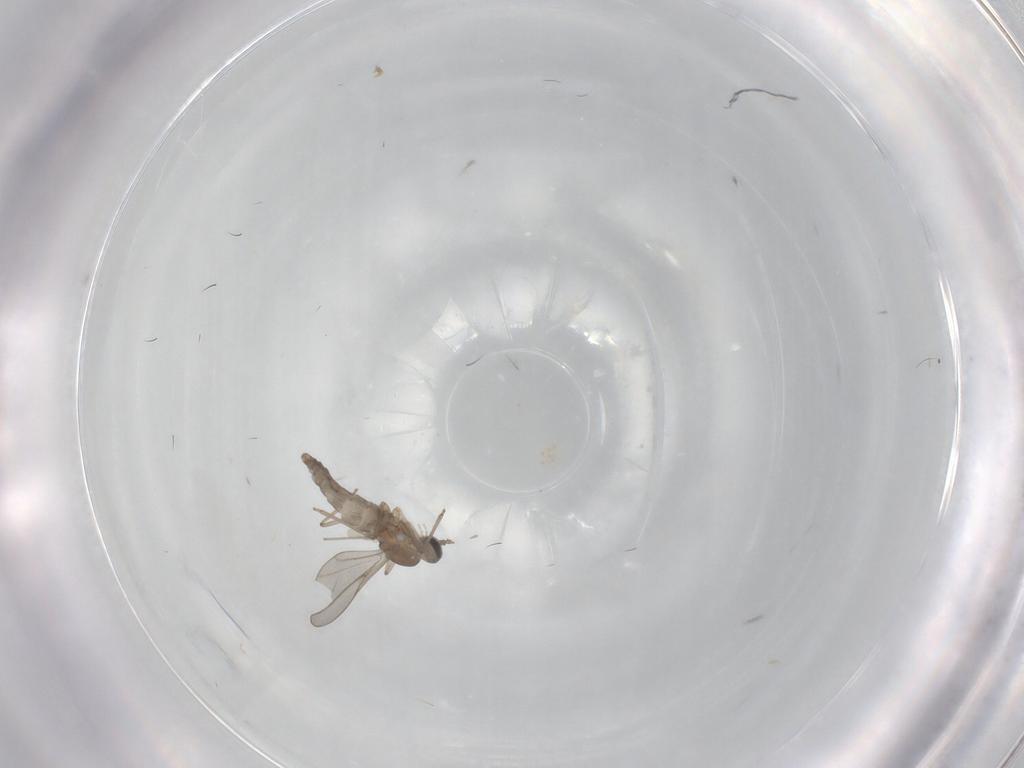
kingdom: Animalia
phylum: Arthropoda
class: Insecta
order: Diptera
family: Cecidomyiidae
